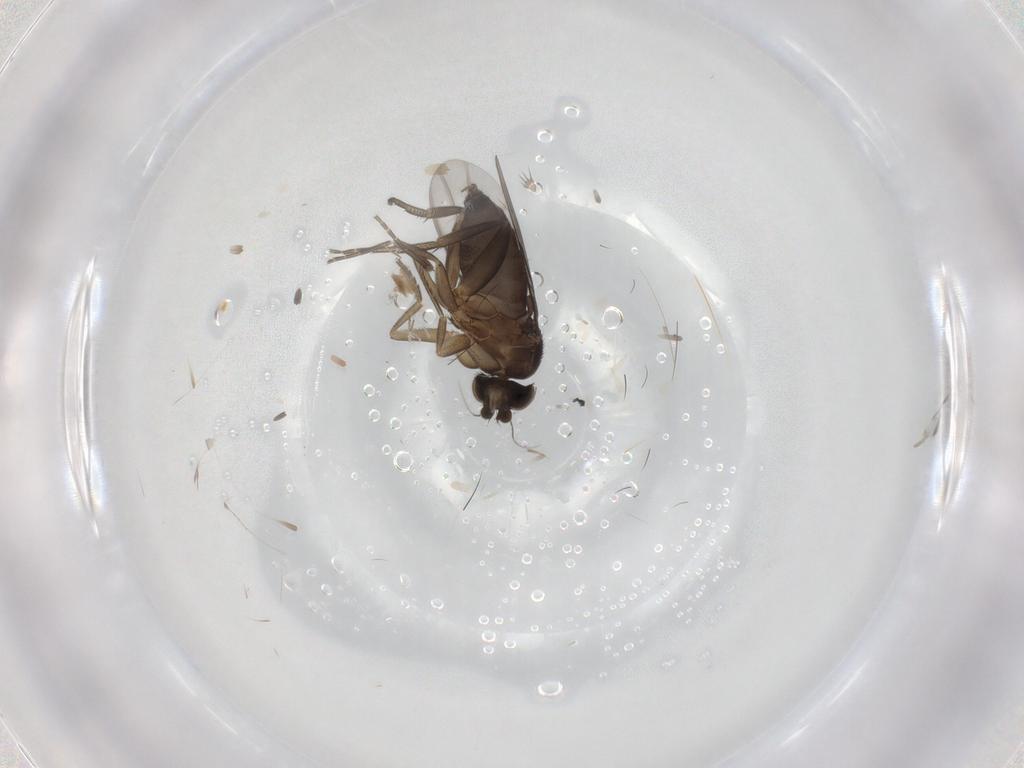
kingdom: Animalia
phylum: Arthropoda
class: Insecta
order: Diptera
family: Phoridae
